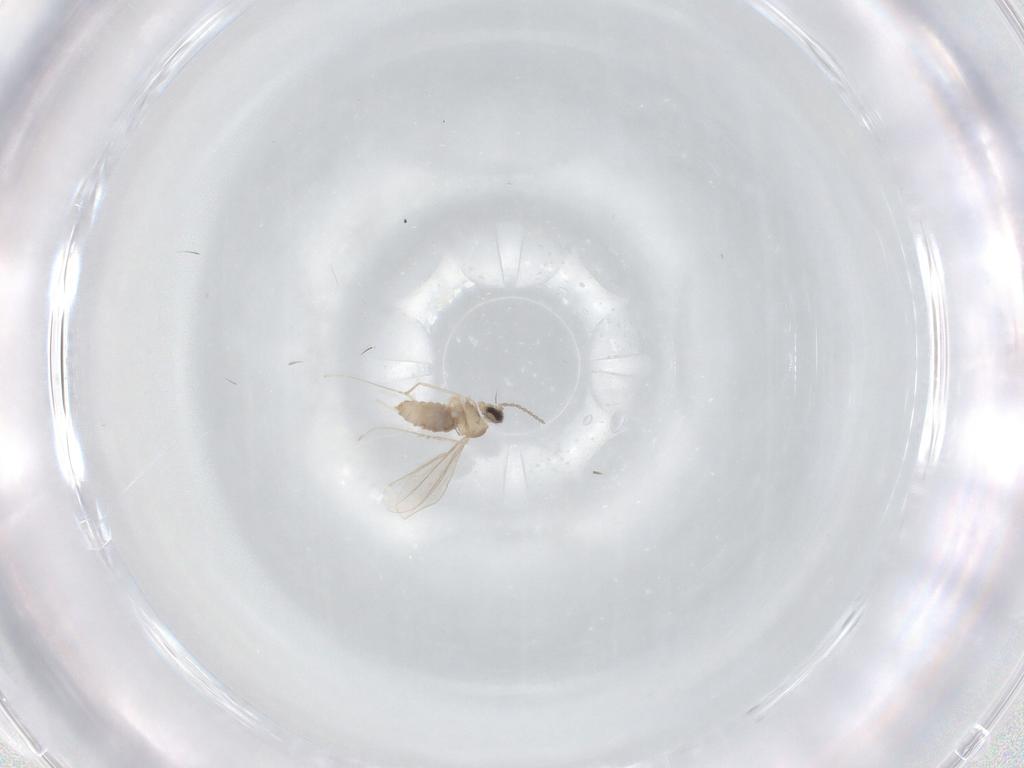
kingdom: Animalia
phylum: Arthropoda
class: Insecta
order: Diptera
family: Cecidomyiidae
